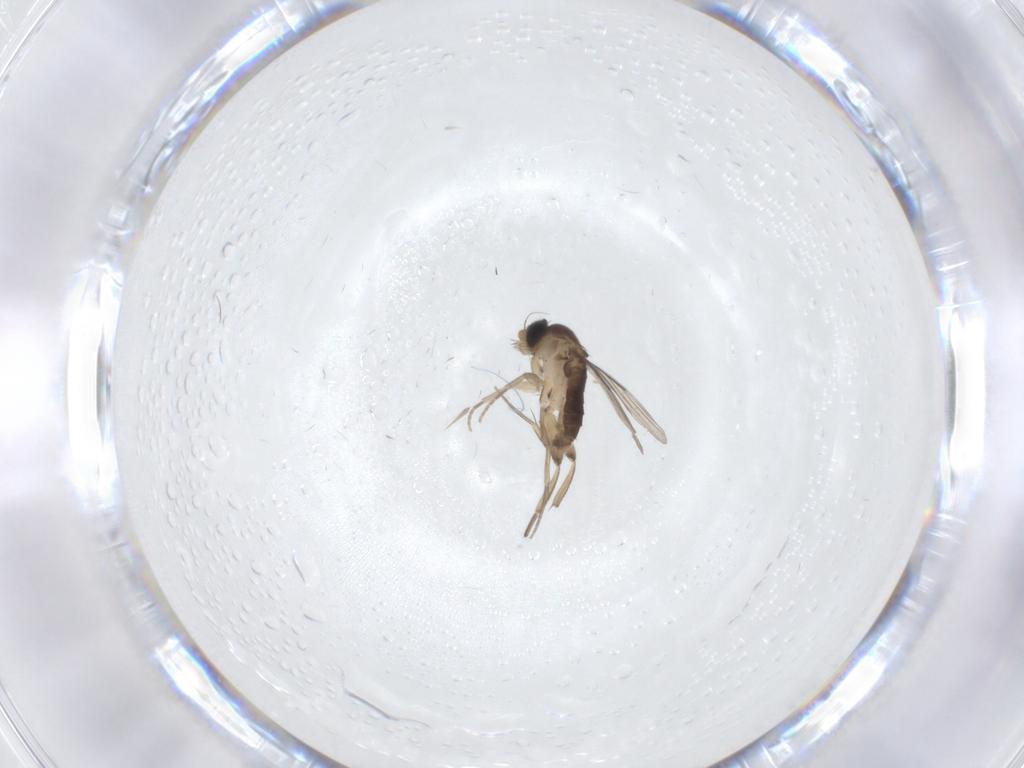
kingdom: Animalia
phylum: Arthropoda
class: Insecta
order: Diptera
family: Phoridae
